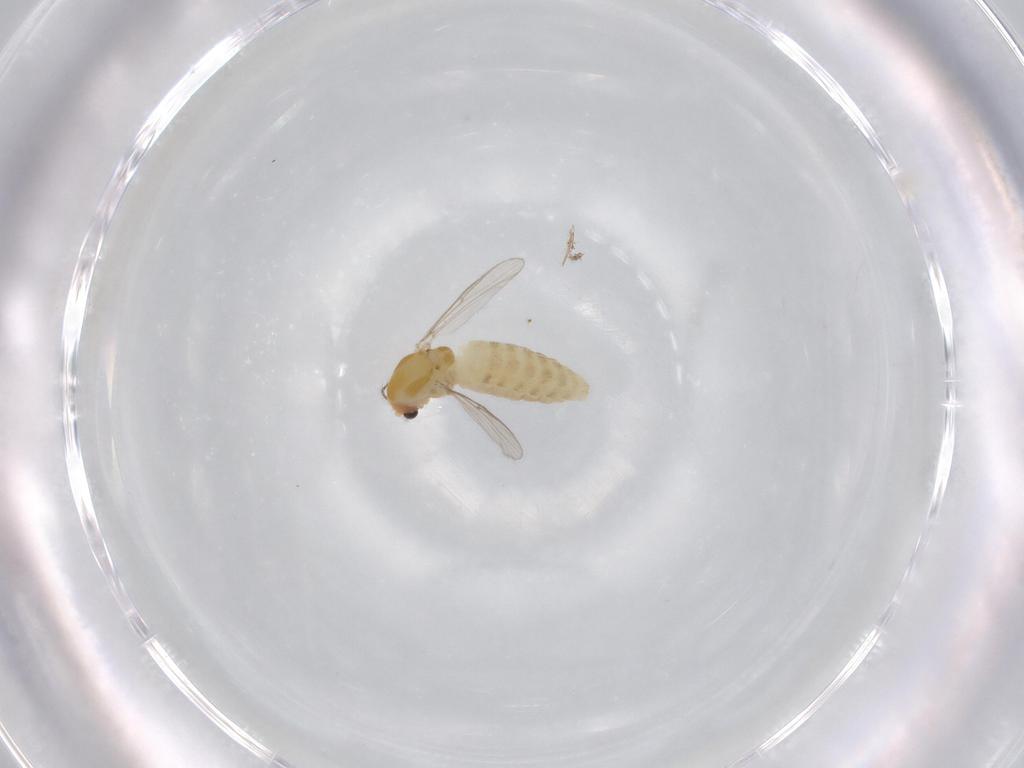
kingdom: Animalia
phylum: Arthropoda
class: Insecta
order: Diptera
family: Chironomidae
